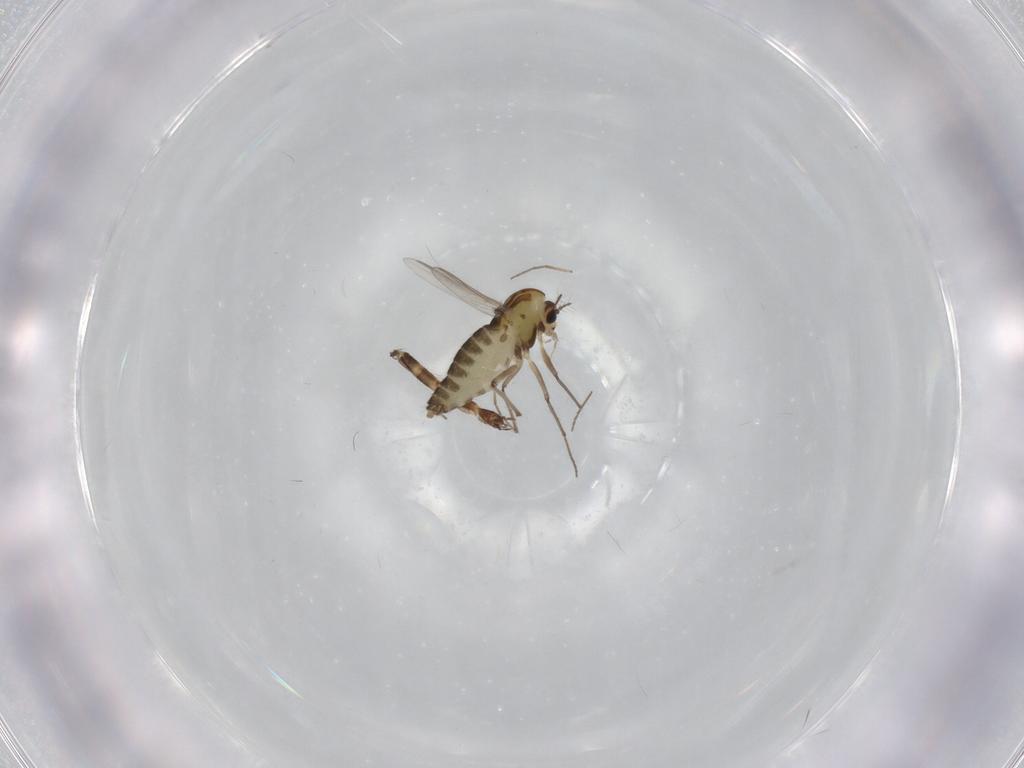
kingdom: Animalia
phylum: Arthropoda
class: Insecta
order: Diptera
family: Chironomidae
